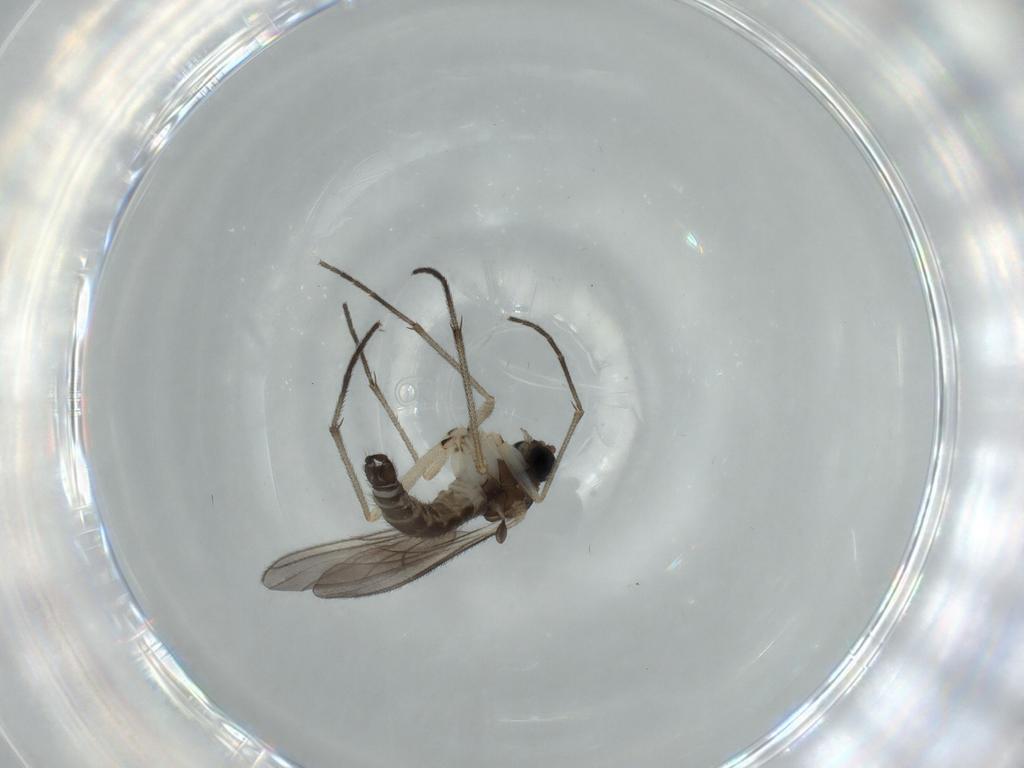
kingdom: Animalia
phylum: Arthropoda
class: Insecta
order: Diptera
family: Sciaridae
